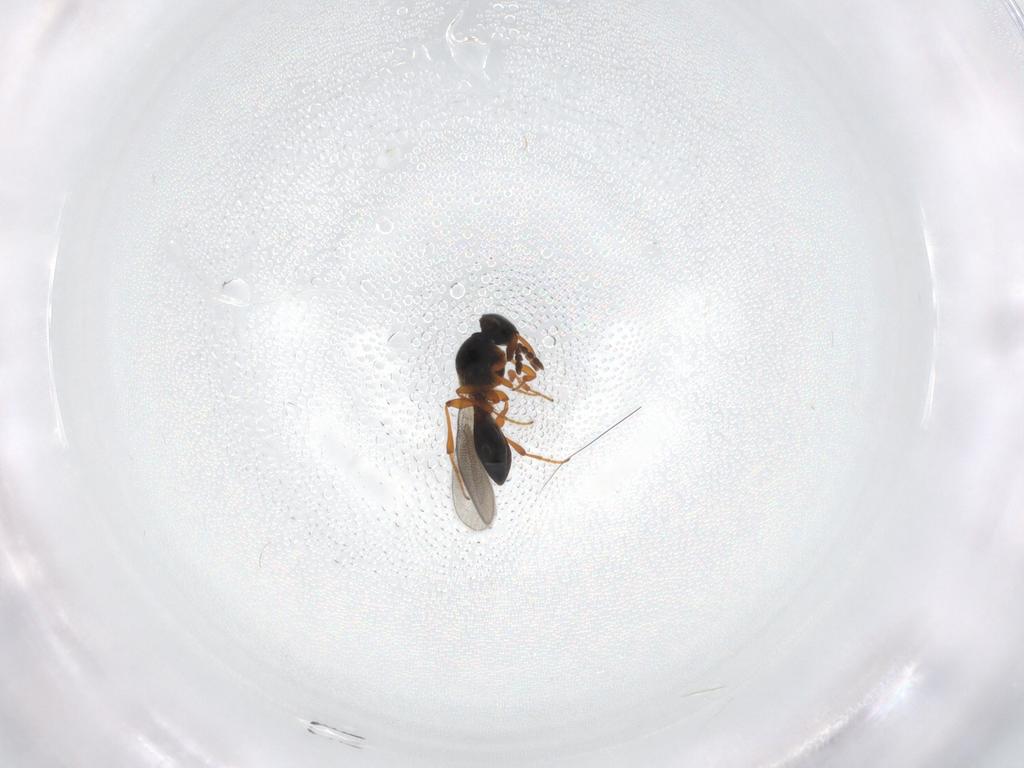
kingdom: Animalia
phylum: Arthropoda
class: Insecta
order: Hymenoptera
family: Platygastridae
